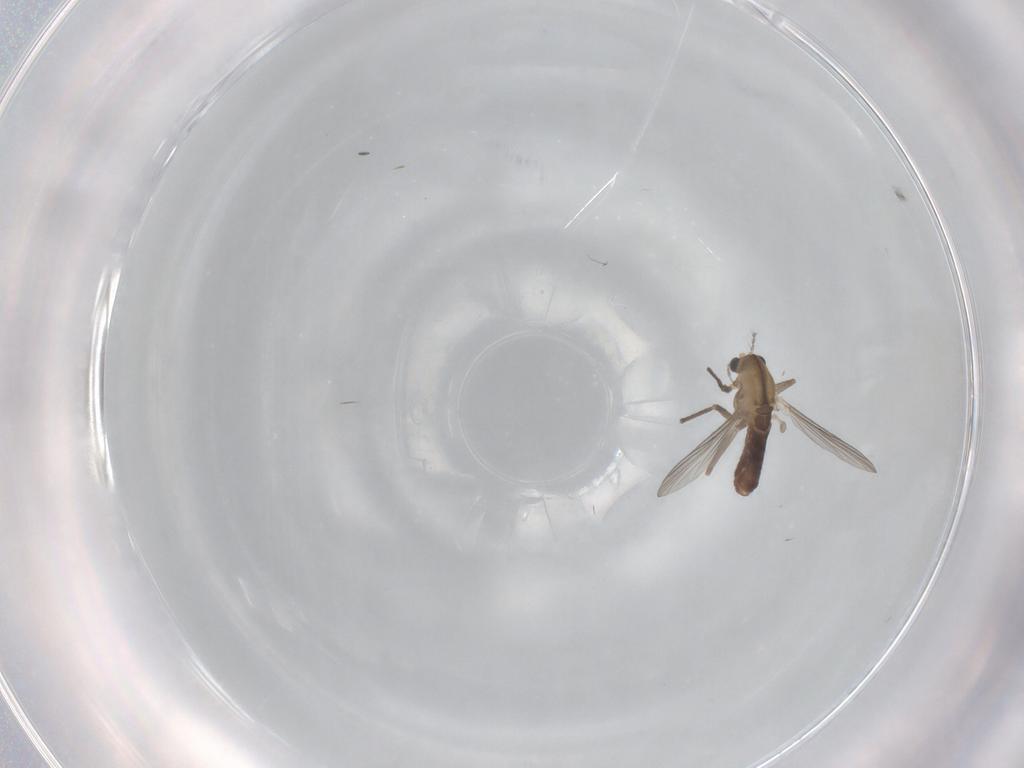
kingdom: Animalia
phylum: Arthropoda
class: Insecta
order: Diptera
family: Chironomidae
